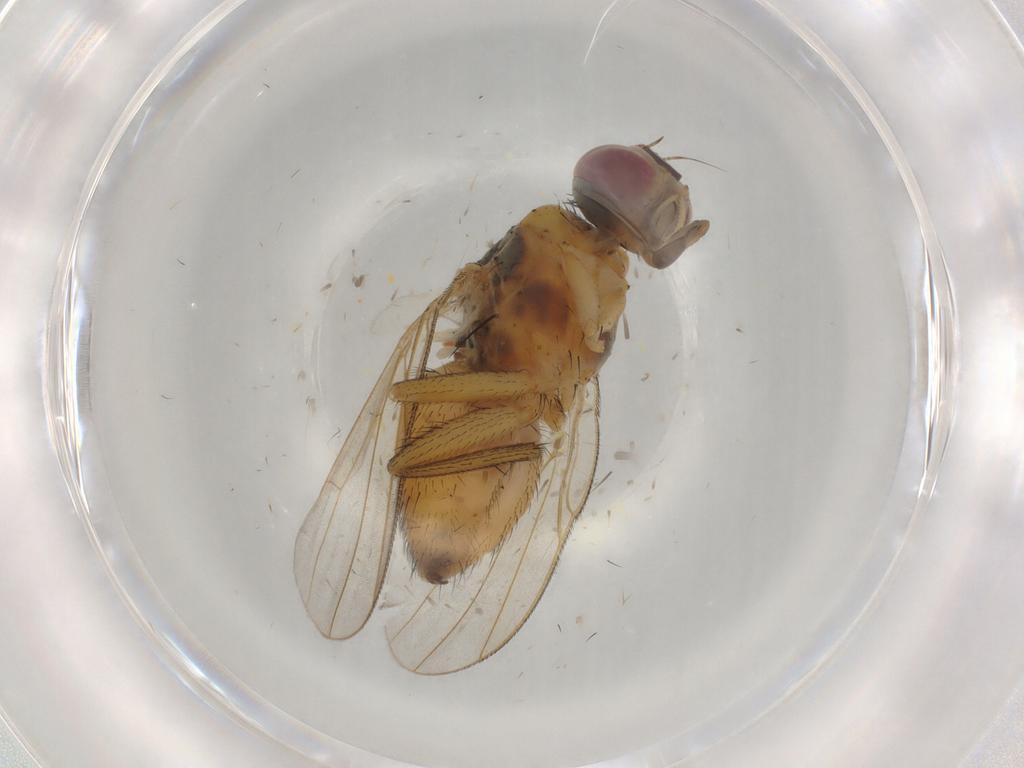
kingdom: Animalia
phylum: Arthropoda
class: Insecta
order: Diptera
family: Muscidae
